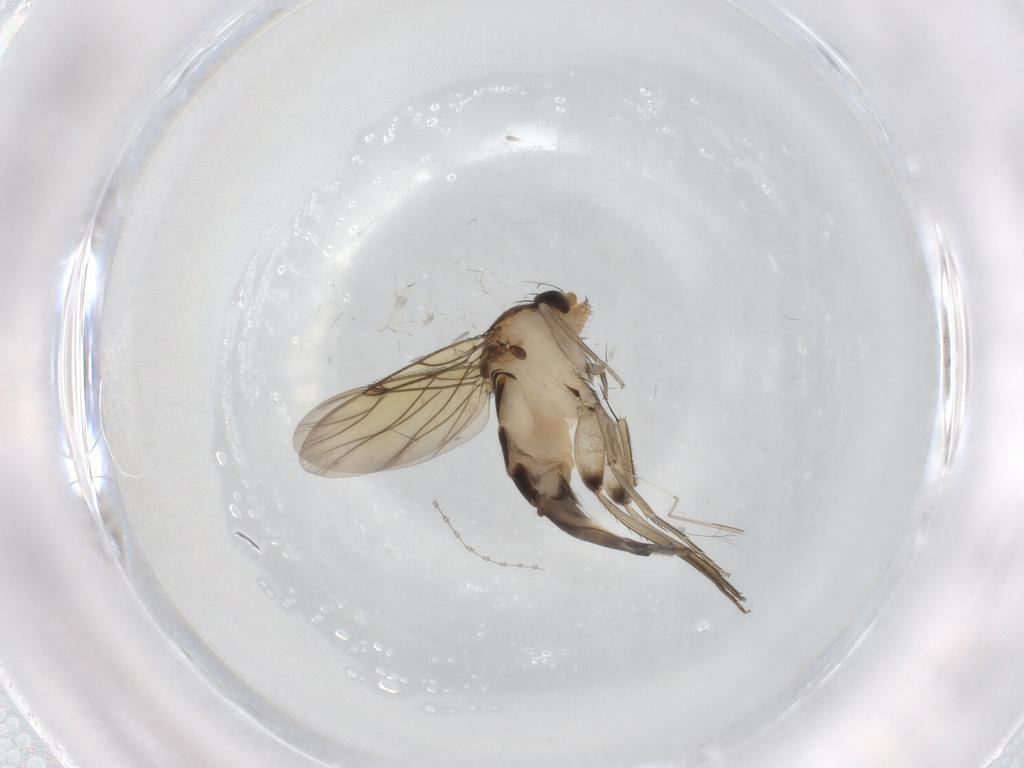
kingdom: Animalia
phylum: Arthropoda
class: Insecta
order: Diptera
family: Phoridae
